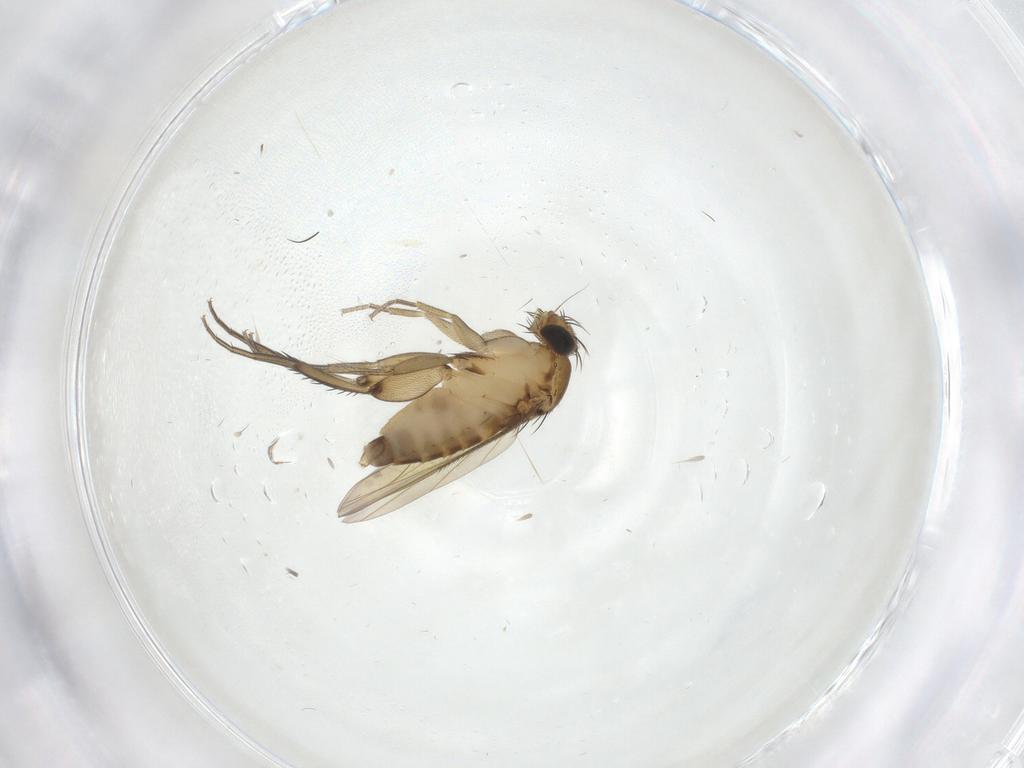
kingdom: Animalia
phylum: Arthropoda
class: Insecta
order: Diptera
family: Phoridae
